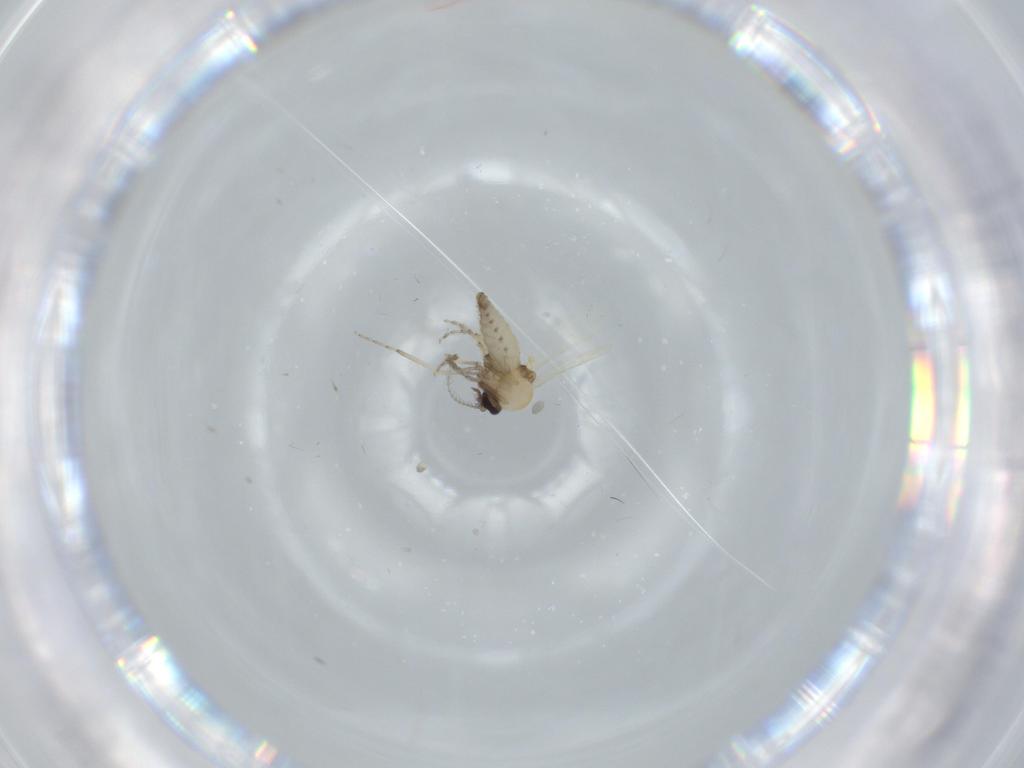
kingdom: Animalia
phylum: Arthropoda
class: Insecta
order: Diptera
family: Ceratopogonidae
